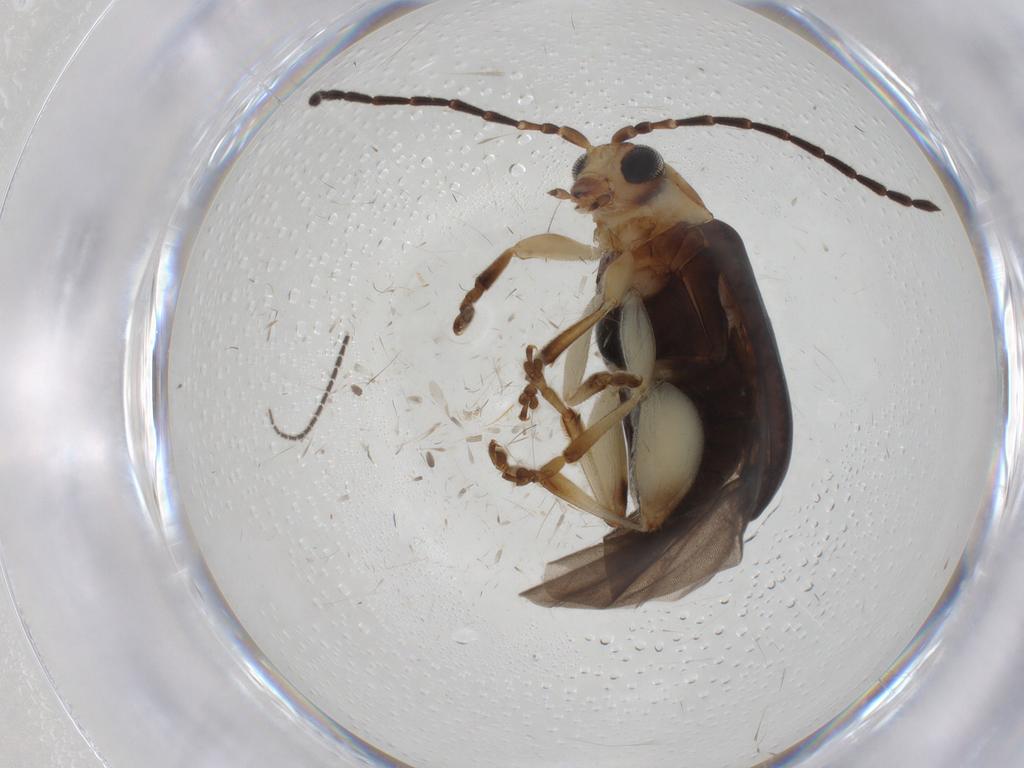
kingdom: Animalia
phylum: Arthropoda
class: Insecta
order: Coleoptera
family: Chrysomelidae
